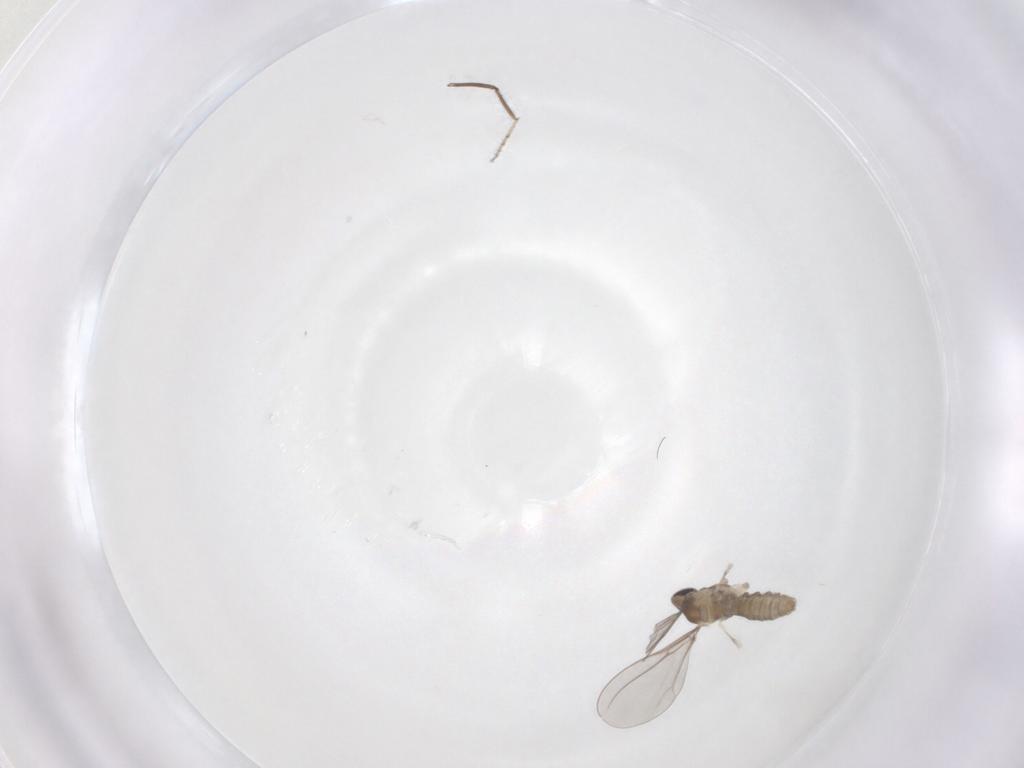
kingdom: Animalia
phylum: Arthropoda
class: Insecta
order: Diptera
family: Ceratopogonidae
